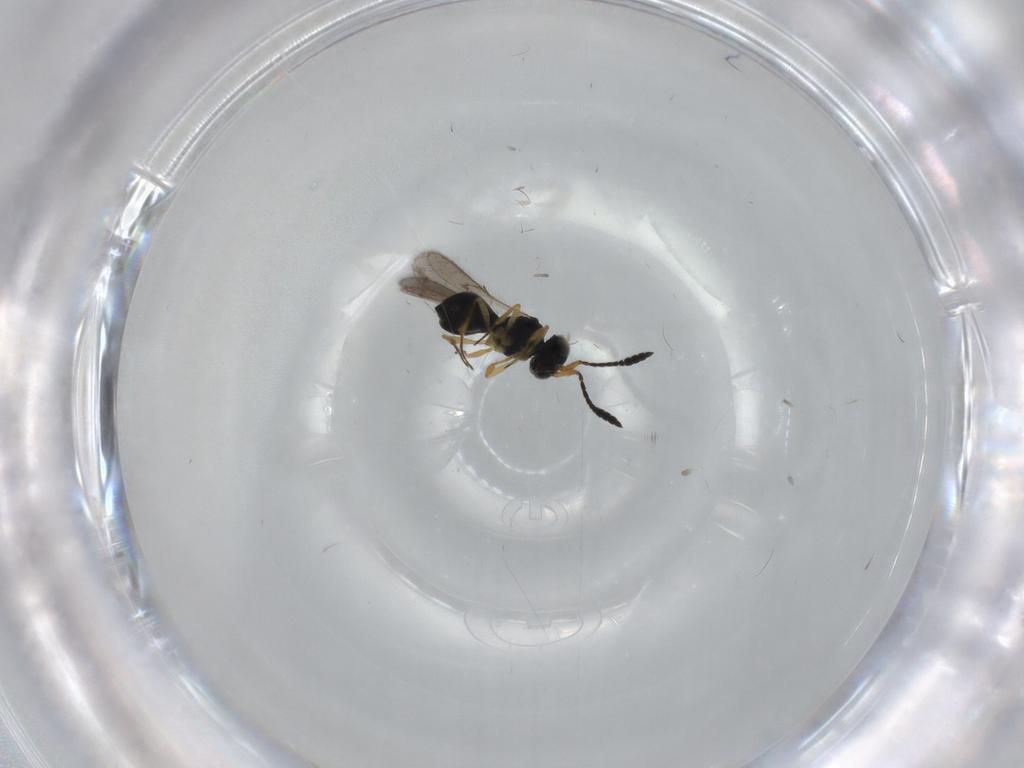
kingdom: Animalia
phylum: Arthropoda
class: Insecta
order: Hymenoptera
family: Scelionidae
